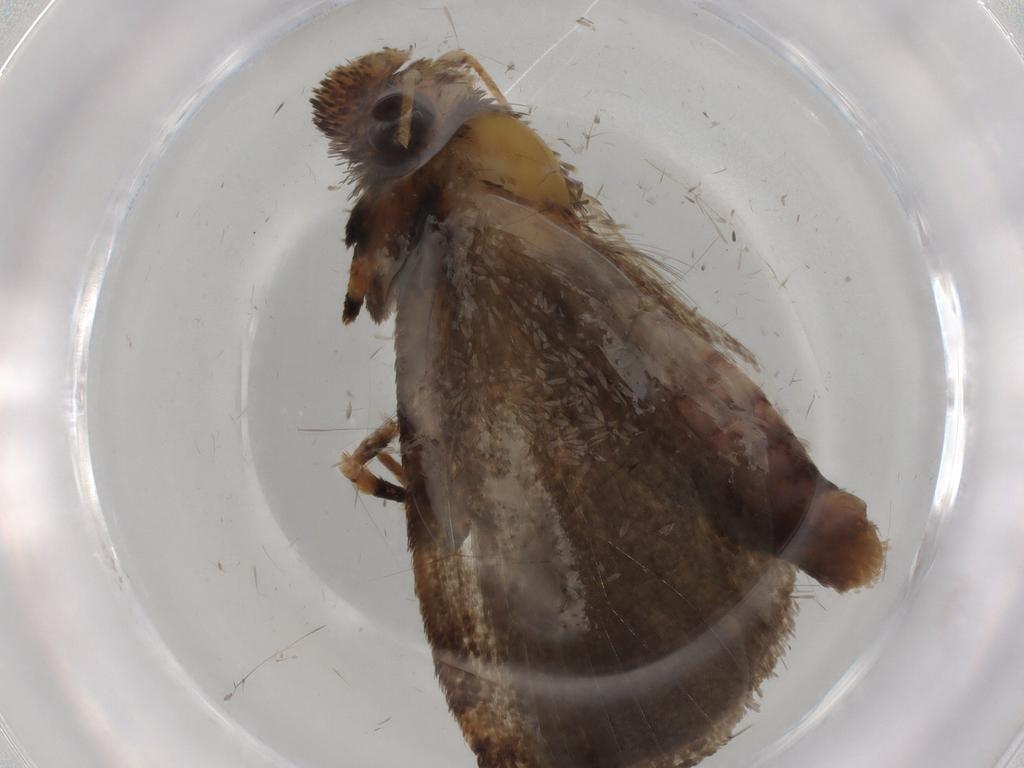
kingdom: Animalia
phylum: Arthropoda
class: Insecta
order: Lepidoptera
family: Tineidae
